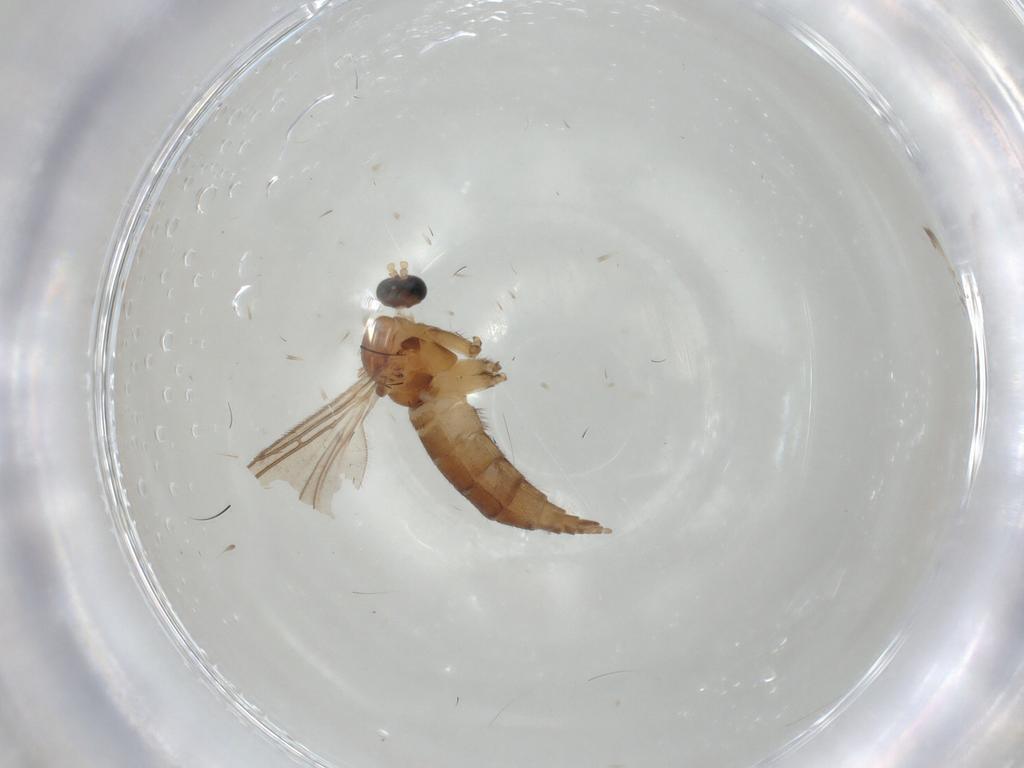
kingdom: Animalia
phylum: Arthropoda
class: Insecta
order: Diptera
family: Sciaridae
